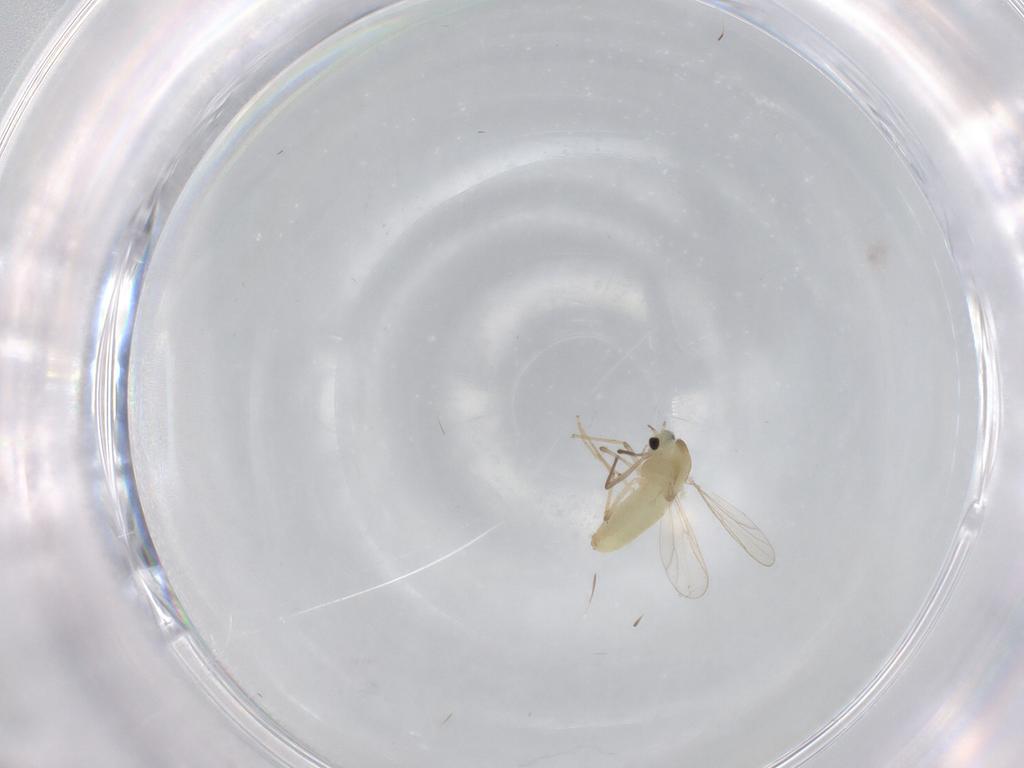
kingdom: Animalia
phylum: Arthropoda
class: Insecta
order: Diptera
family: Chironomidae
